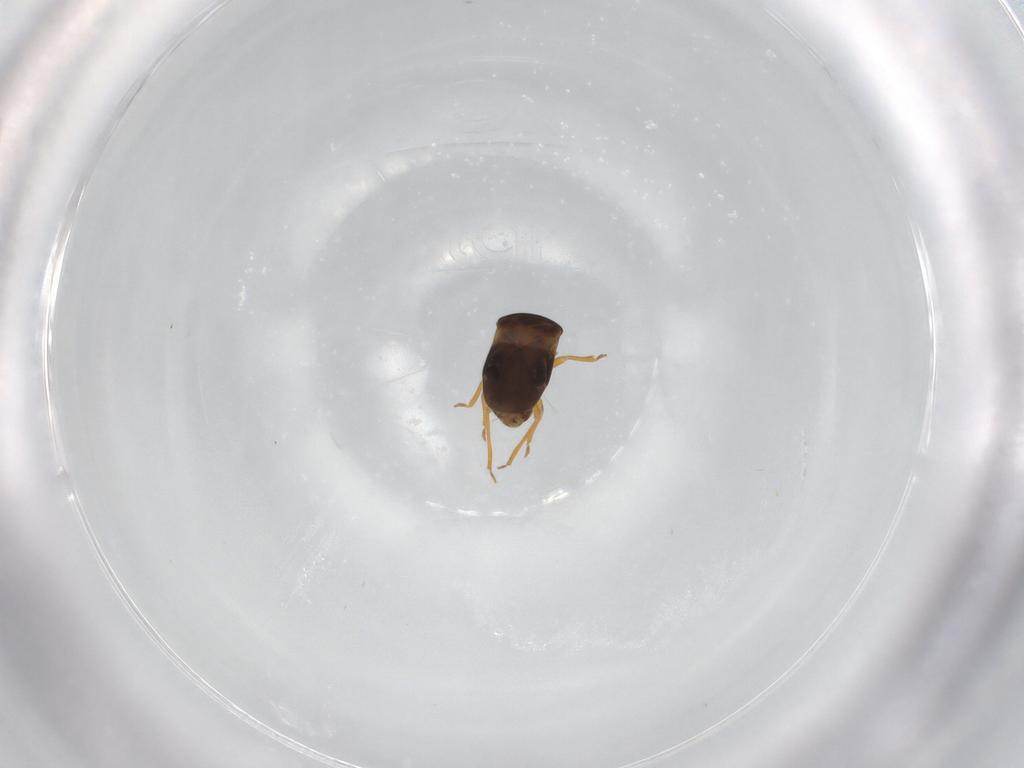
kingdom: Animalia
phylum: Arthropoda
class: Insecta
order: Hemiptera
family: Schizopteridae
